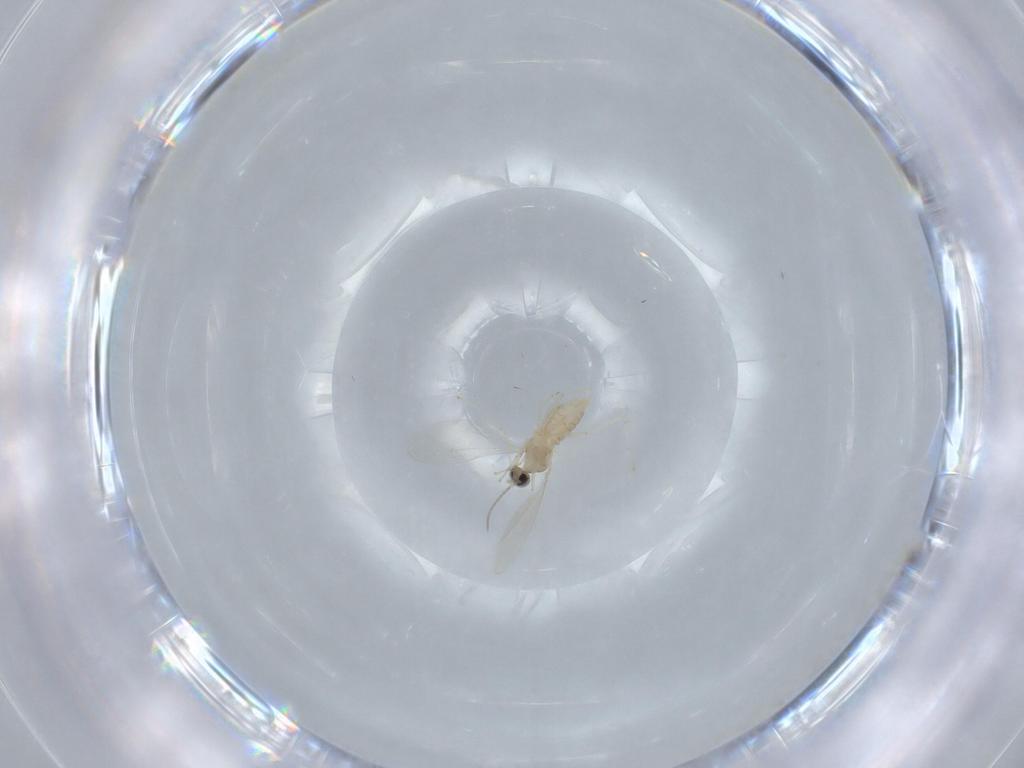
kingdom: Animalia
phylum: Arthropoda
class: Insecta
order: Diptera
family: Cecidomyiidae
